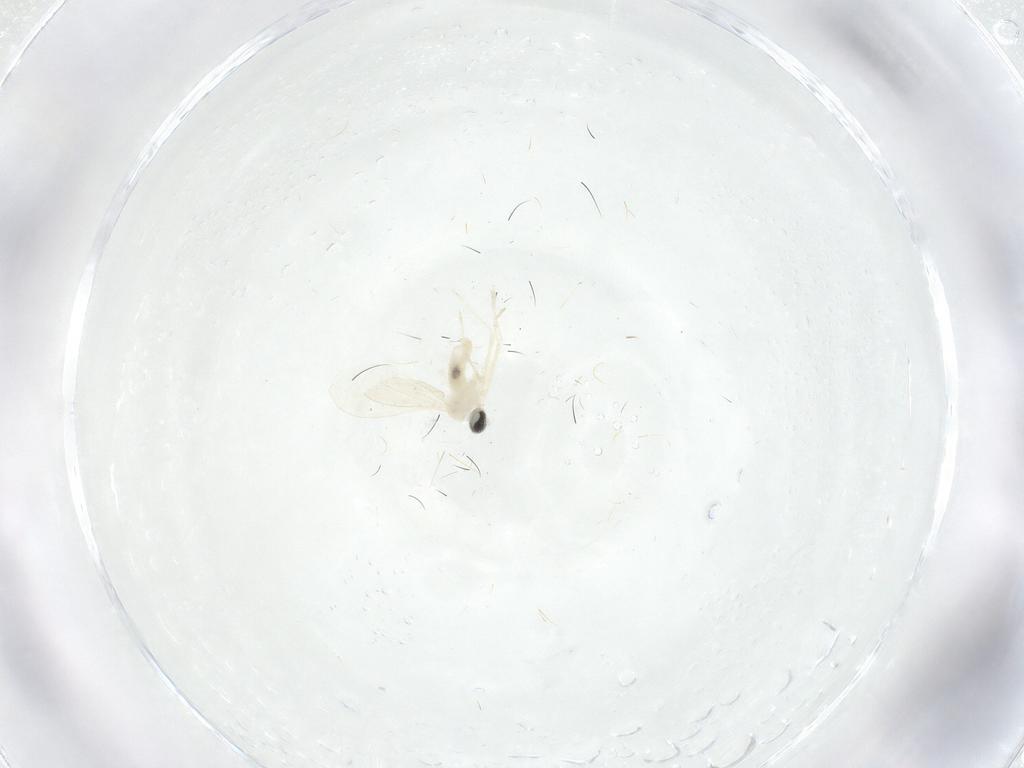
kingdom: Animalia
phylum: Arthropoda
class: Insecta
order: Diptera
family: Cecidomyiidae
